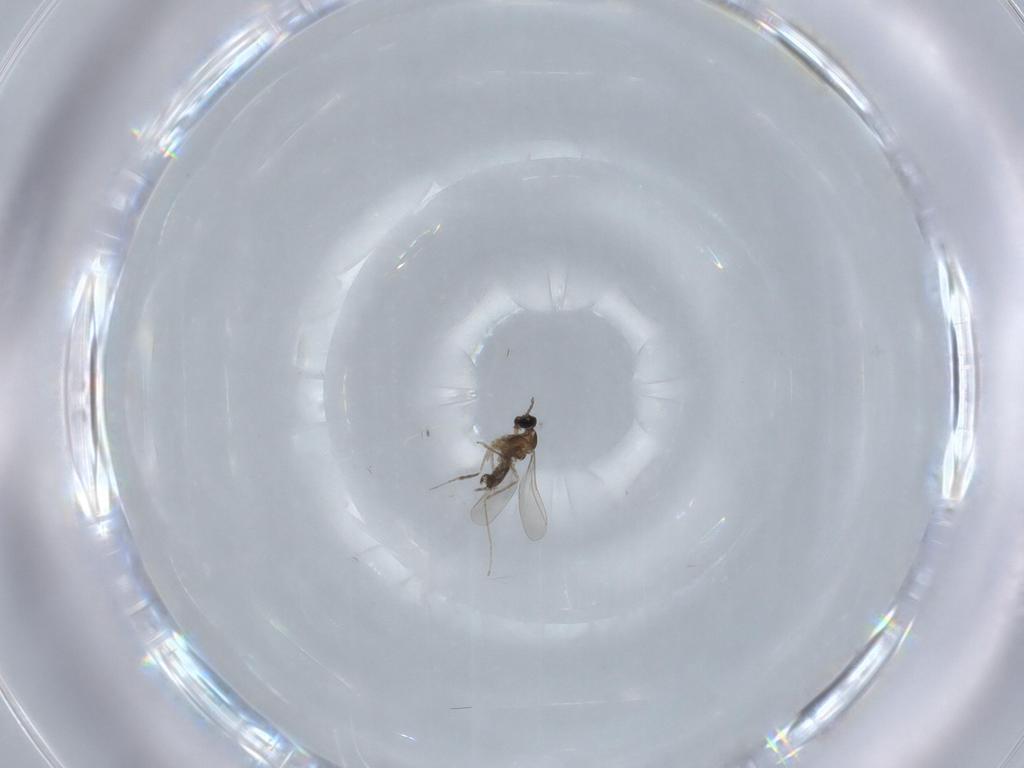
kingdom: Animalia
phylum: Arthropoda
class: Insecta
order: Diptera
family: Cecidomyiidae
